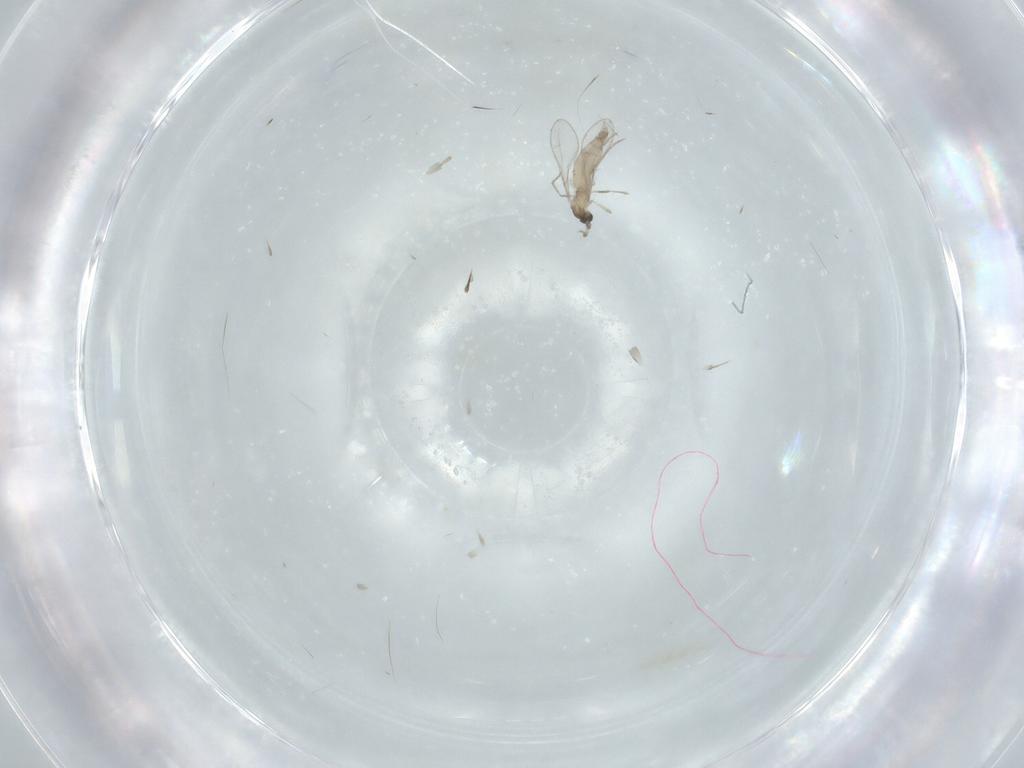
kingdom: Animalia
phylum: Arthropoda
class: Insecta
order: Diptera
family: Cecidomyiidae
